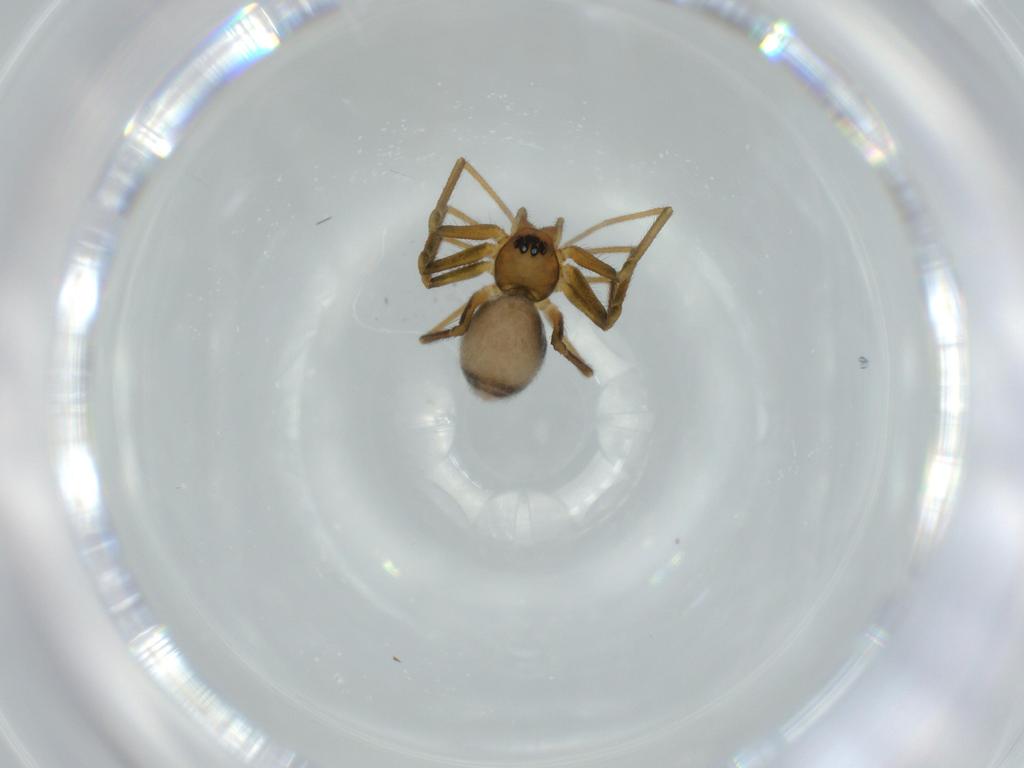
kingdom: Animalia
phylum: Arthropoda
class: Arachnida
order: Araneae
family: Linyphiidae
